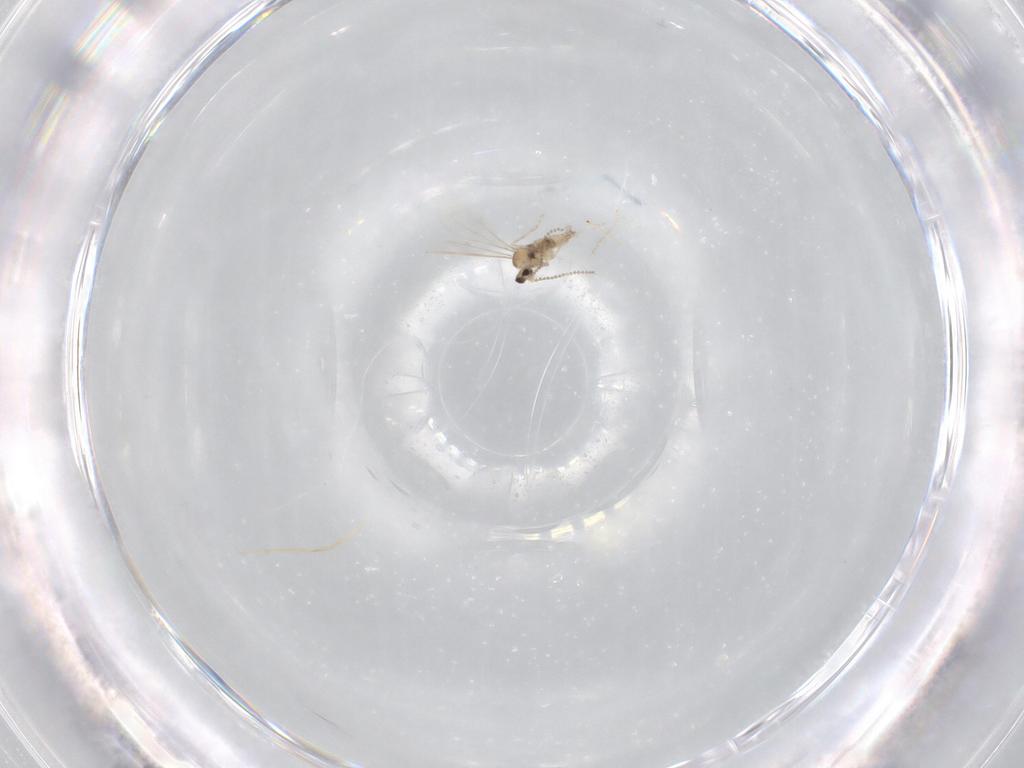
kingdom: Animalia
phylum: Arthropoda
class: Insecta
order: Diptera
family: Cecidomyiidae
